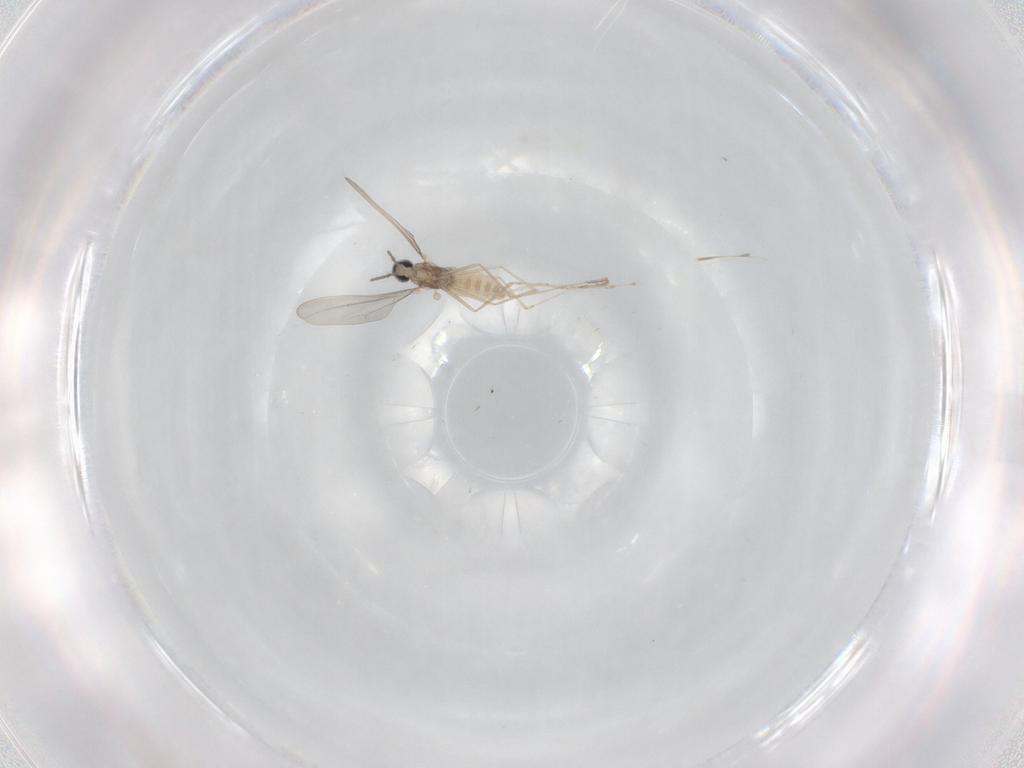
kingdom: Animalia
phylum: Arthropoda
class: Insecta
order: Diptera
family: Cecidomyiidae
